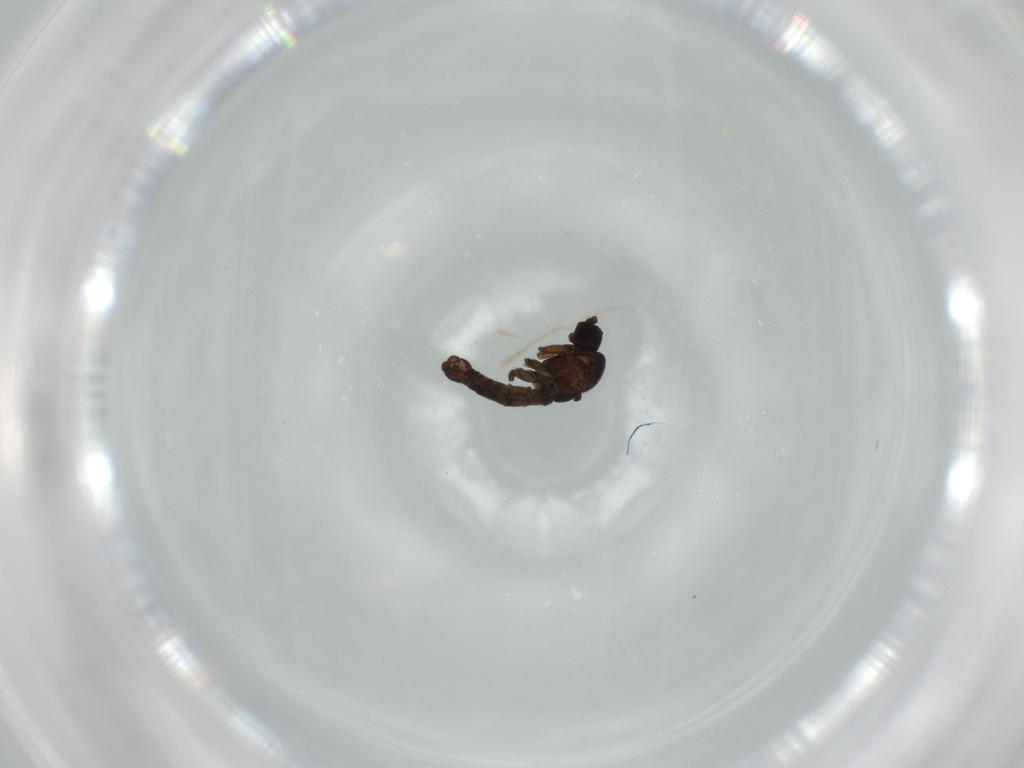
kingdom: Animalia
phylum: Arthropoda
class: Insecta
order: Diptera
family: Sciaridae
